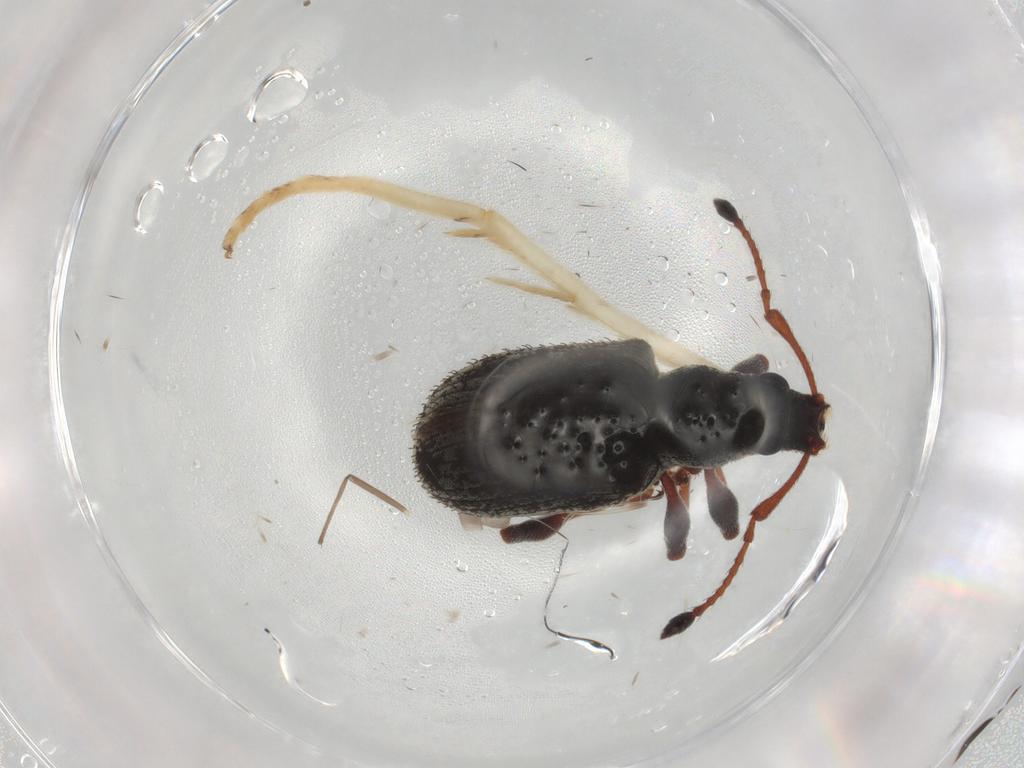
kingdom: Animalia
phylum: Arthropoda
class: Insecta
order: Coleoptera
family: Curculionidae
